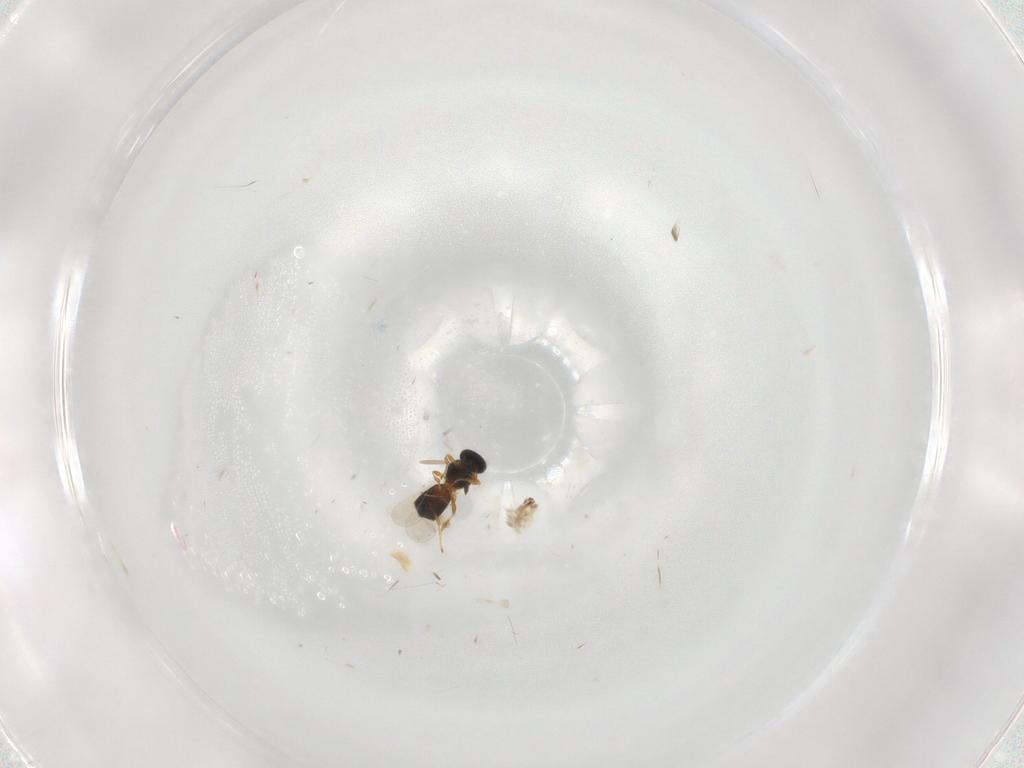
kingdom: Animalia
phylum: Arthropoda
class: Insecta
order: Hymenoptera
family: Platygastridae
